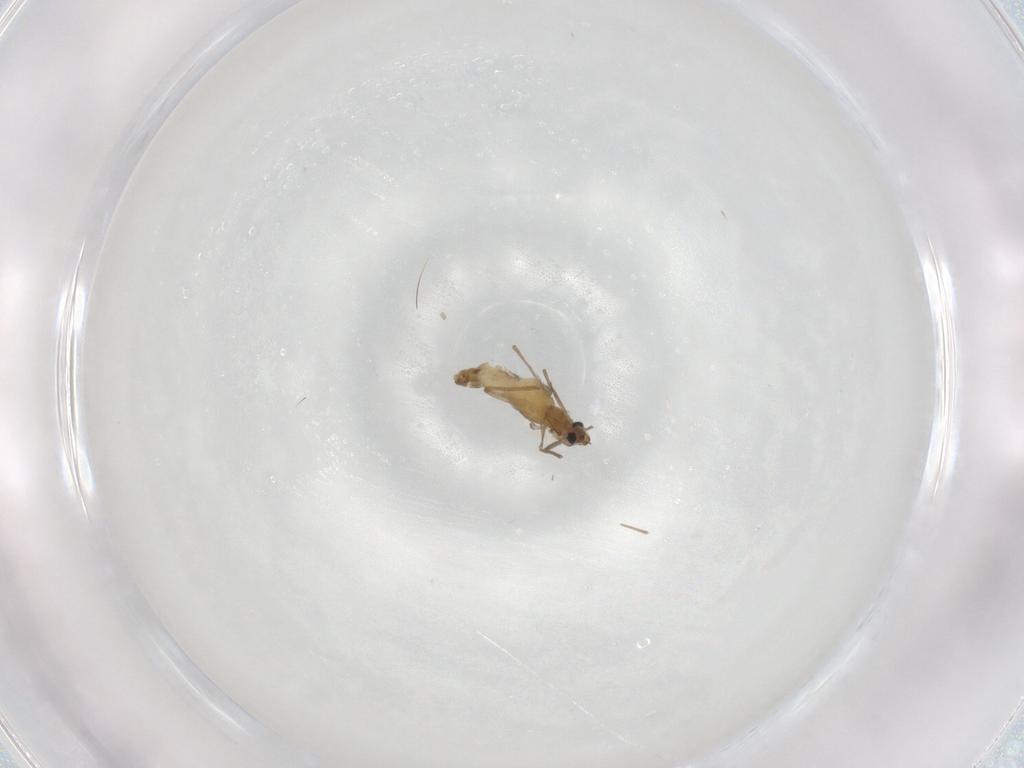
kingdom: Animalia
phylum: Arthropoda
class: Insecta
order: Diptera
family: Chironomidae
